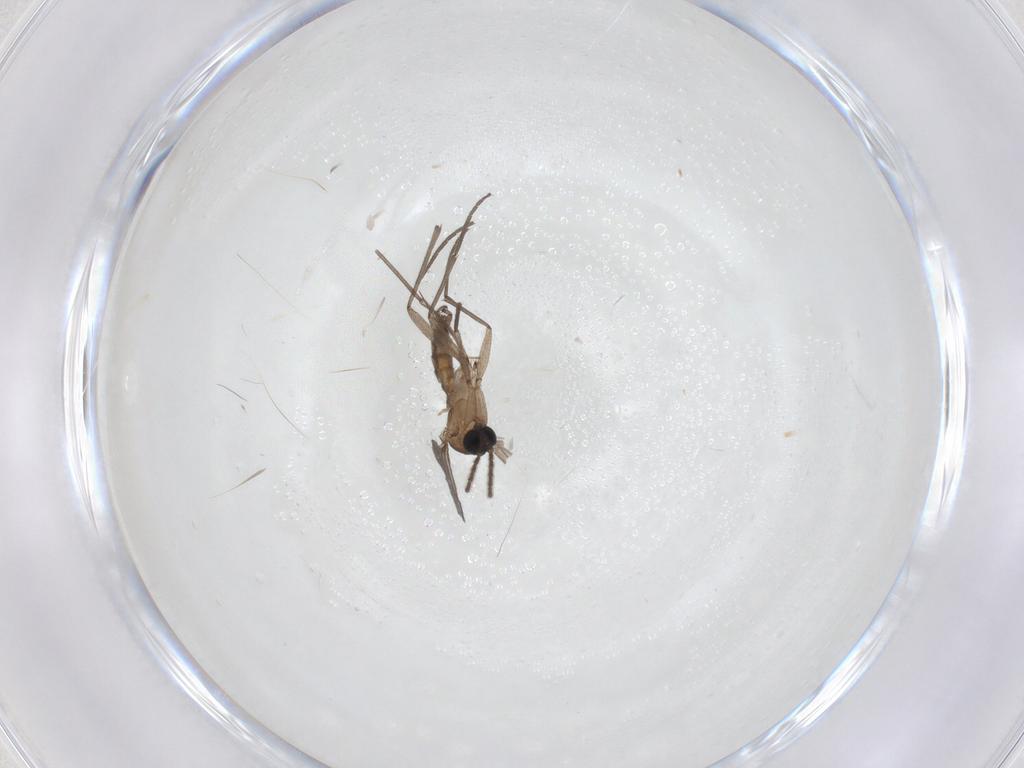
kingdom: Animalia
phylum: Arthropoda
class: Insecta
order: Diptera
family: Sciaridae
